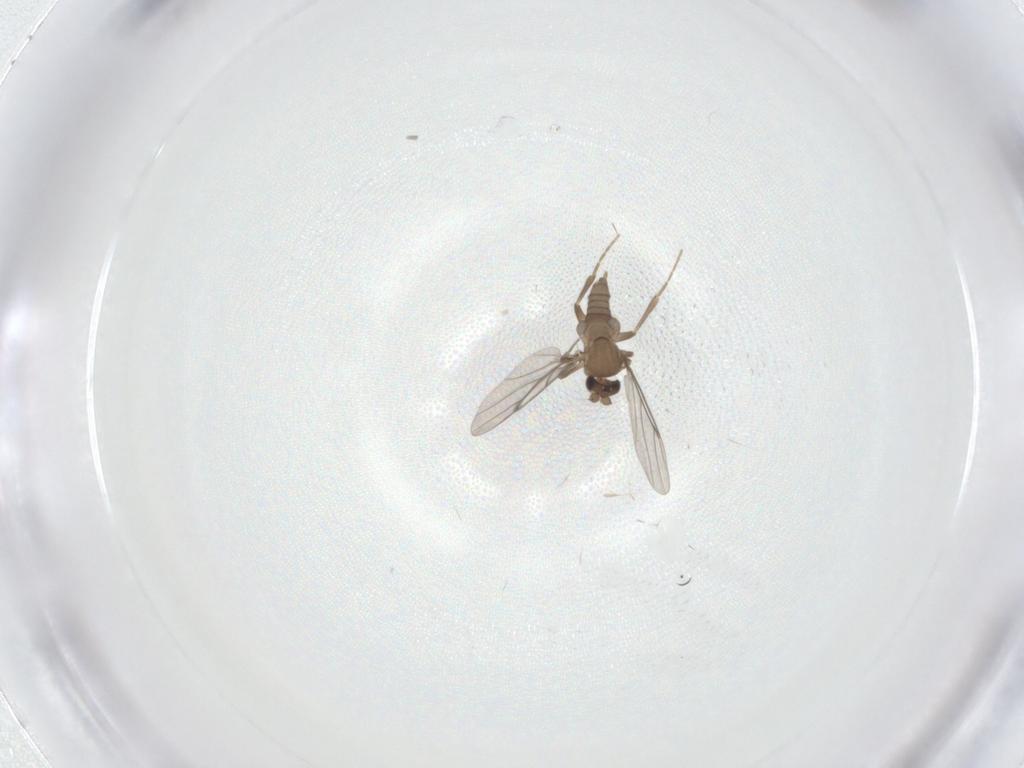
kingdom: Animalia
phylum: Arthropoda
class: Insecta
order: Diptera
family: Cecidomyiidae
